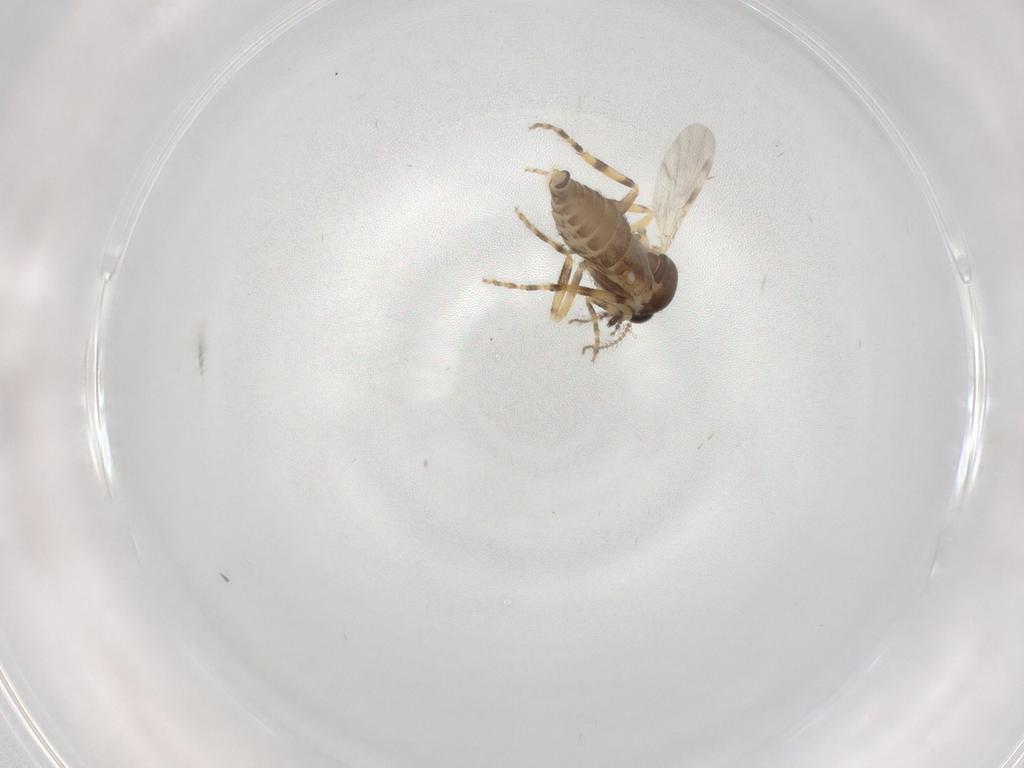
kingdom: Animalia
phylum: Arthropoda
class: Insecta
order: Diptera
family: Ceratopogonidae
